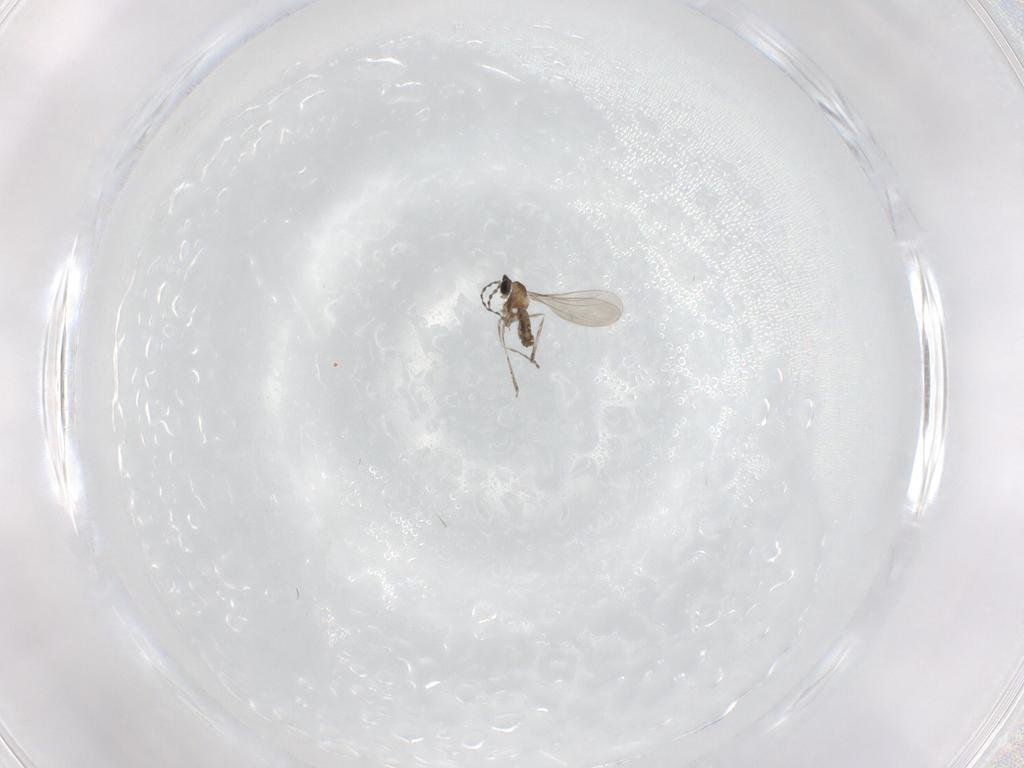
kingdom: Animalia
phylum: Arthropoda
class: Insecta
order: Diptera
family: Cecidomyiidae
